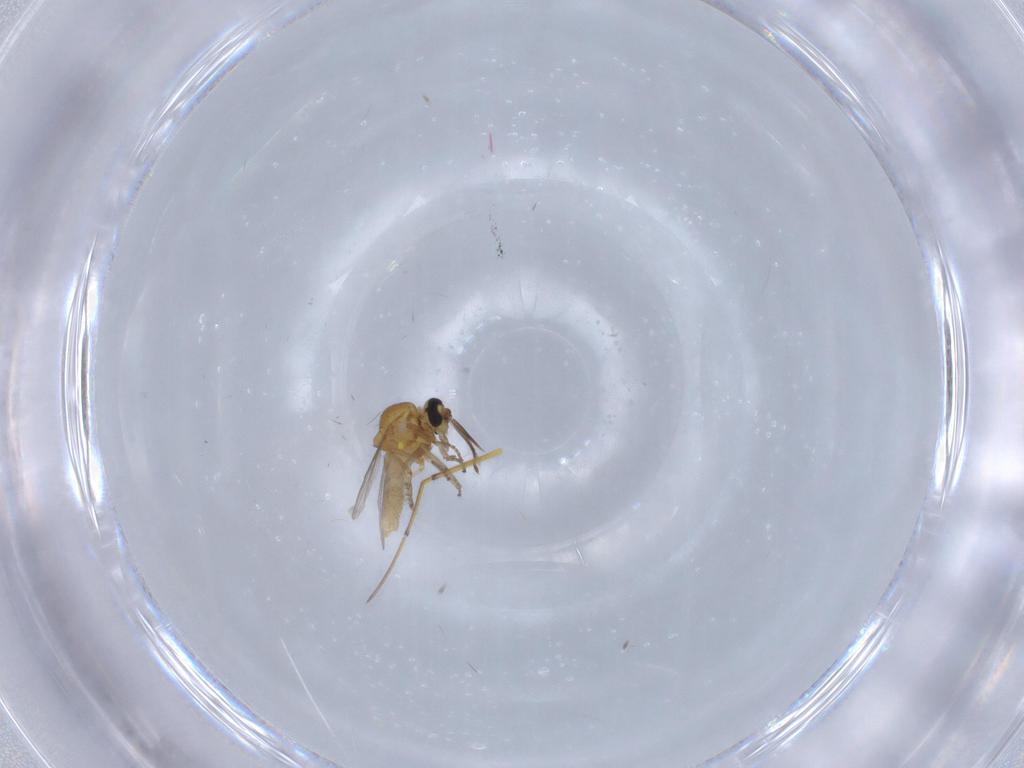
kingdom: Animalia
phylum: Arthropoda
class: Insecta
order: Diptera
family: Ceratopogonidae
